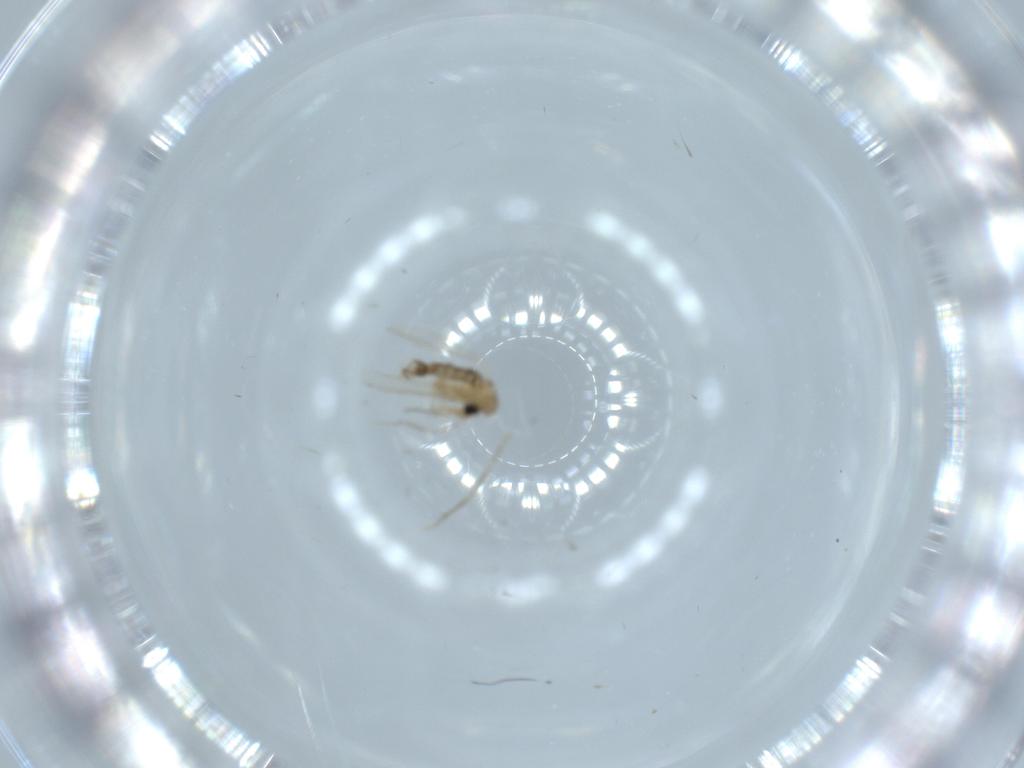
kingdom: Animalia
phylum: Arthropoda
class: Insecta
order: Diptera
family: Psychodidae
